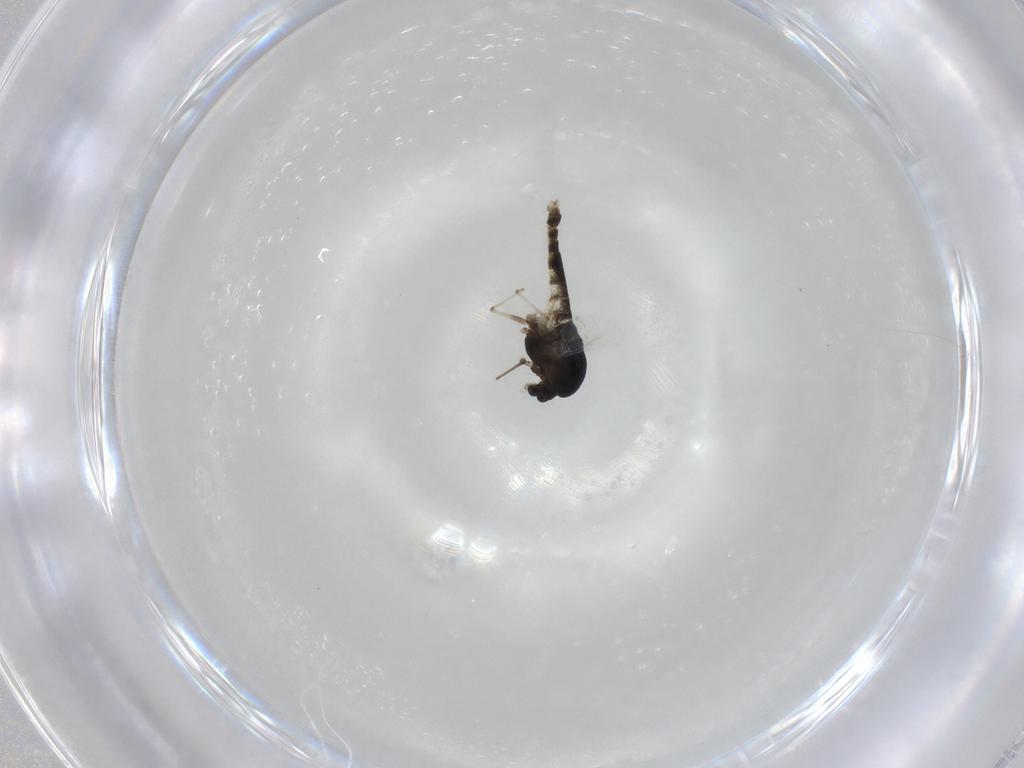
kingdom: Animalia
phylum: Arthropoda
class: Insecta
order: Diptera
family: Chironomidae
